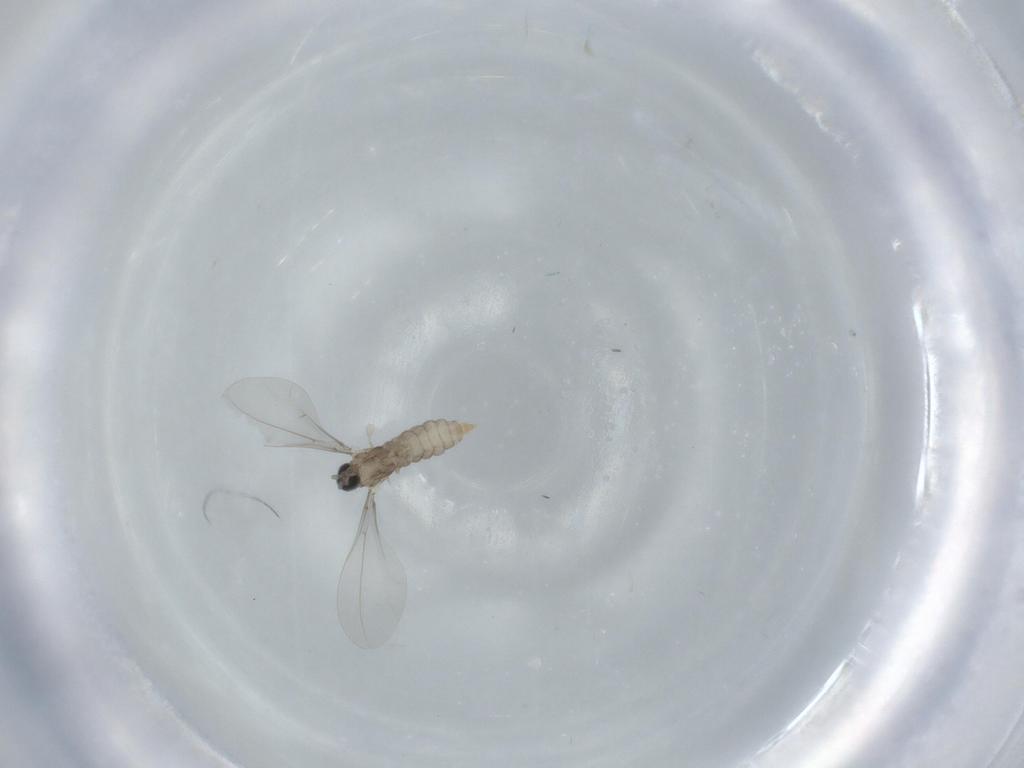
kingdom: Animalia
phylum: Arthropoda
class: Insecta
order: Diptera
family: Cecidomyiidae
